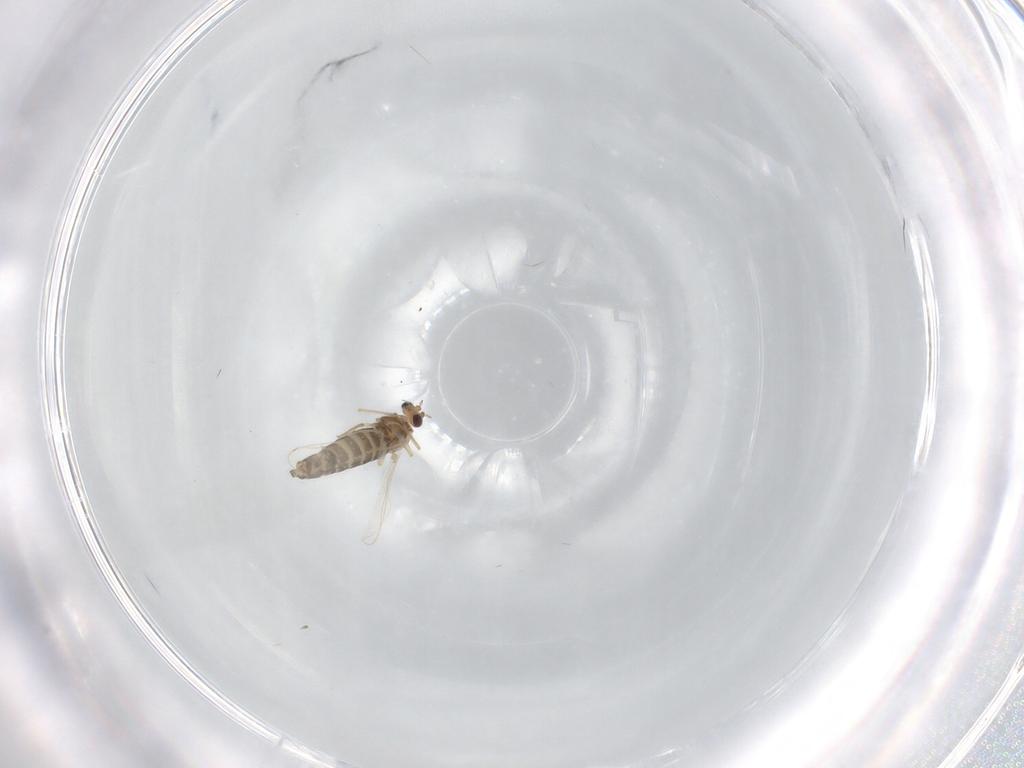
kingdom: Animalia
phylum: Arthropoda
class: Insecta
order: Diptera
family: Chironomidae
